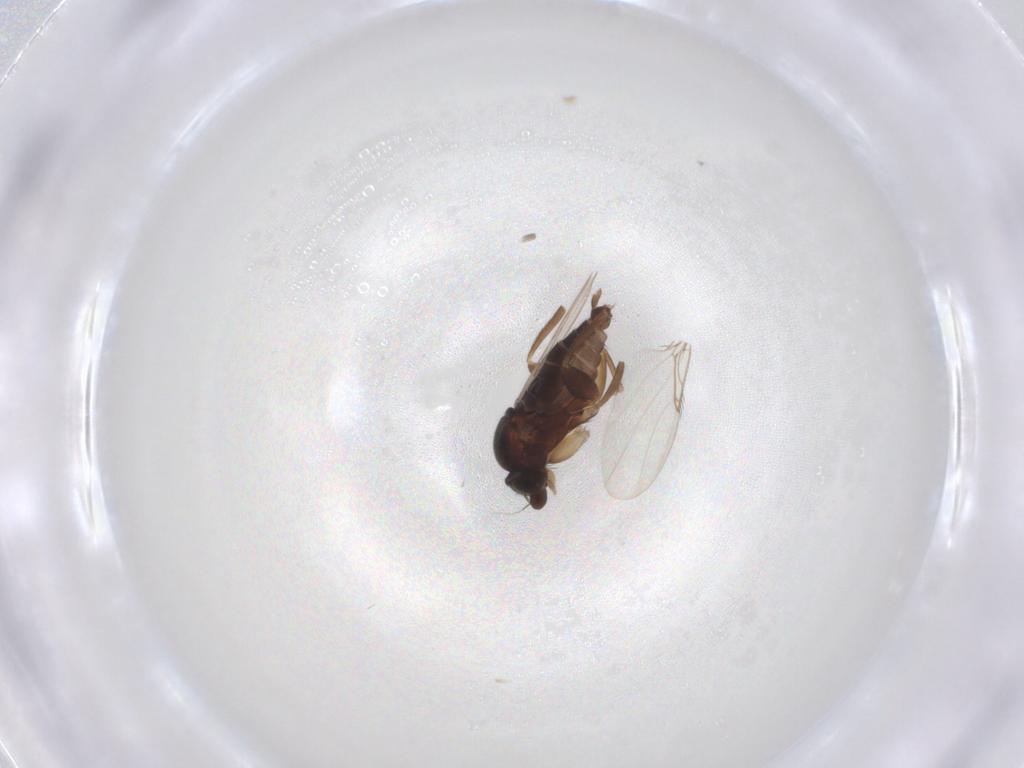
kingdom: Animalia
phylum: Arthropoda
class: Insecta
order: Diptera
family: Phoridae
